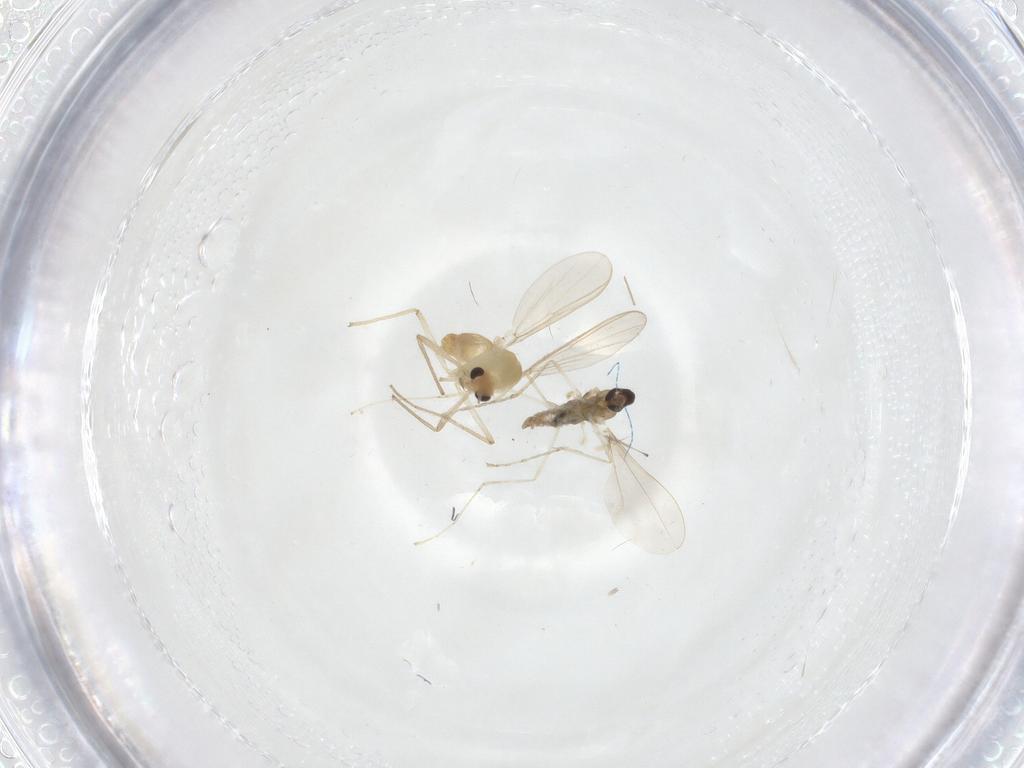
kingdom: Animalia
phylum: Arthropoda
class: Insecta
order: Diptera
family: Cecidomyiidae
